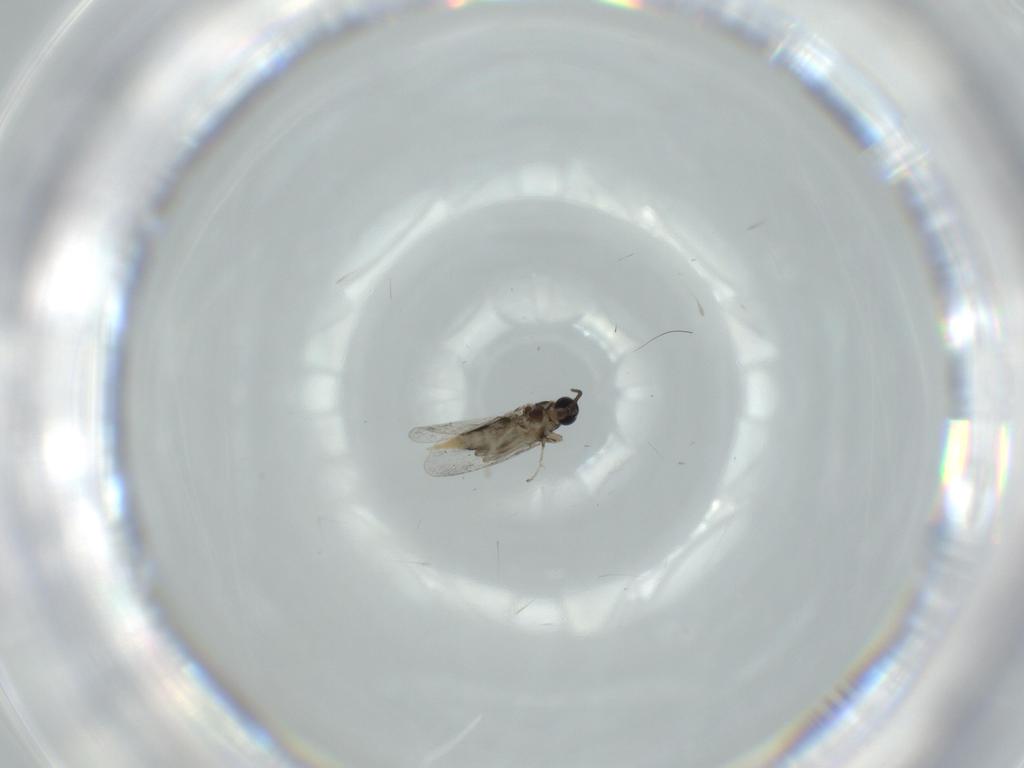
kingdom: Animalia
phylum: Arthropoda
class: Insecta
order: Diptera
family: Cecidomyiidae
